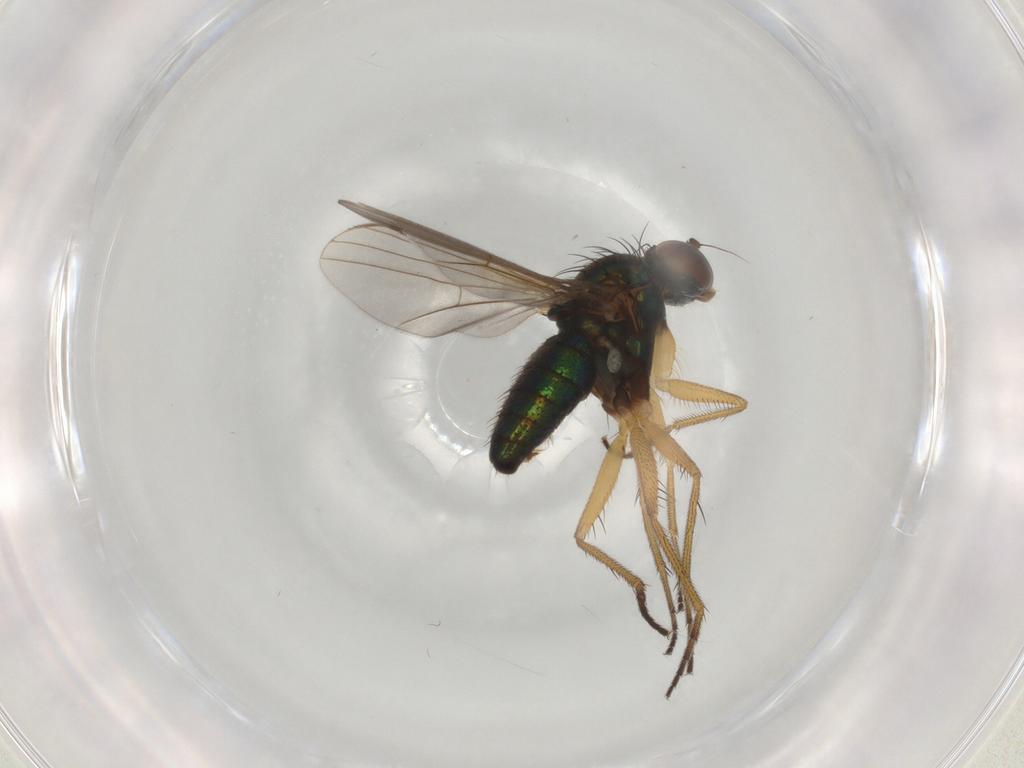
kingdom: Animalia
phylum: Arthropoda
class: Insecta
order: Diptera
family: Dolichopodidae
